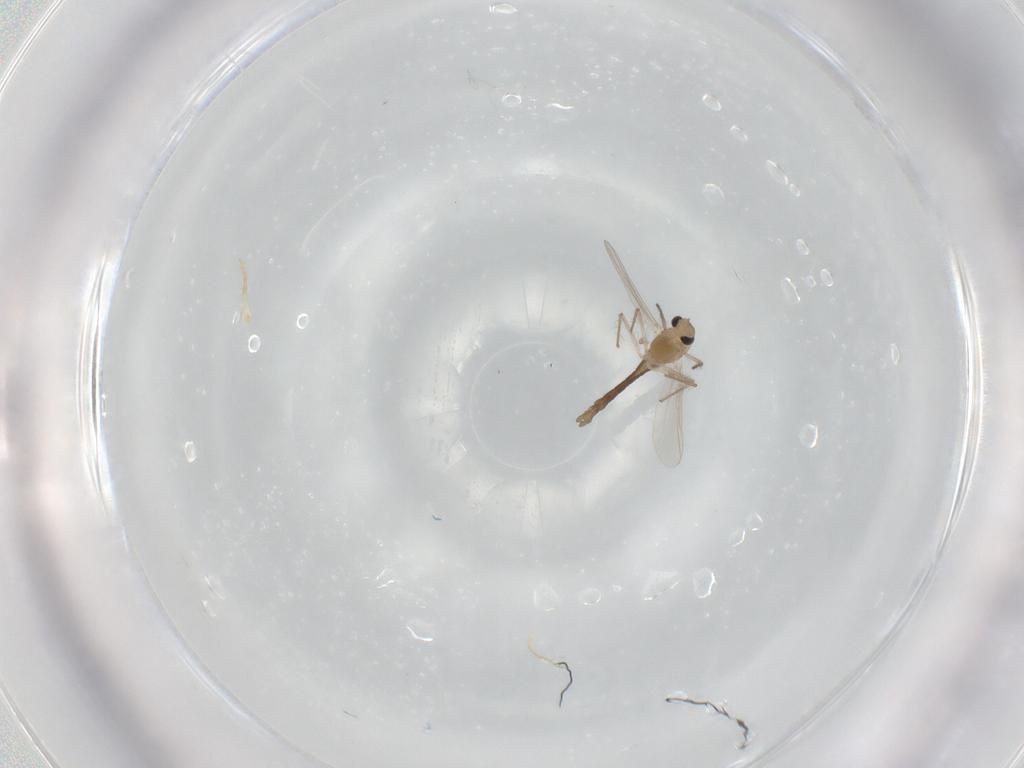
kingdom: Animalia
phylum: Arthropoda
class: Insecta
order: Diptera
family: Chironomidae
